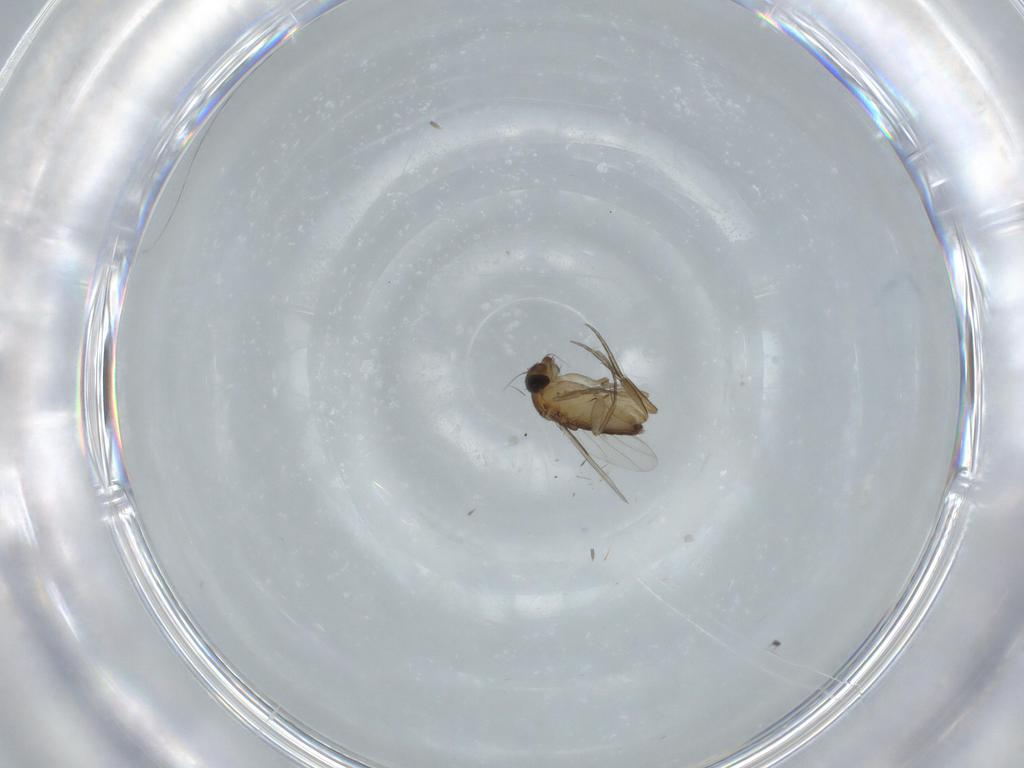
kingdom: Animalia
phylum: Arthropoda
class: Insecta
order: Diptera
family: Phoridae
